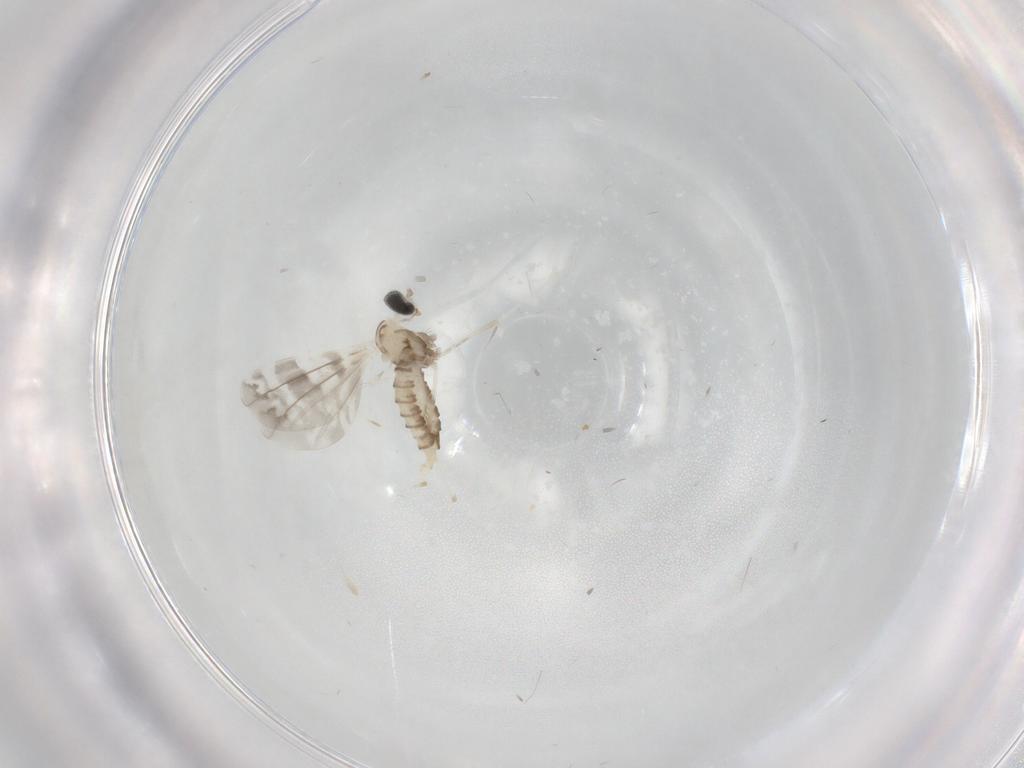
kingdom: Animalia
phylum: Arthropoda
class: Insecta
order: Diptera
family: Cecidomyiidae
